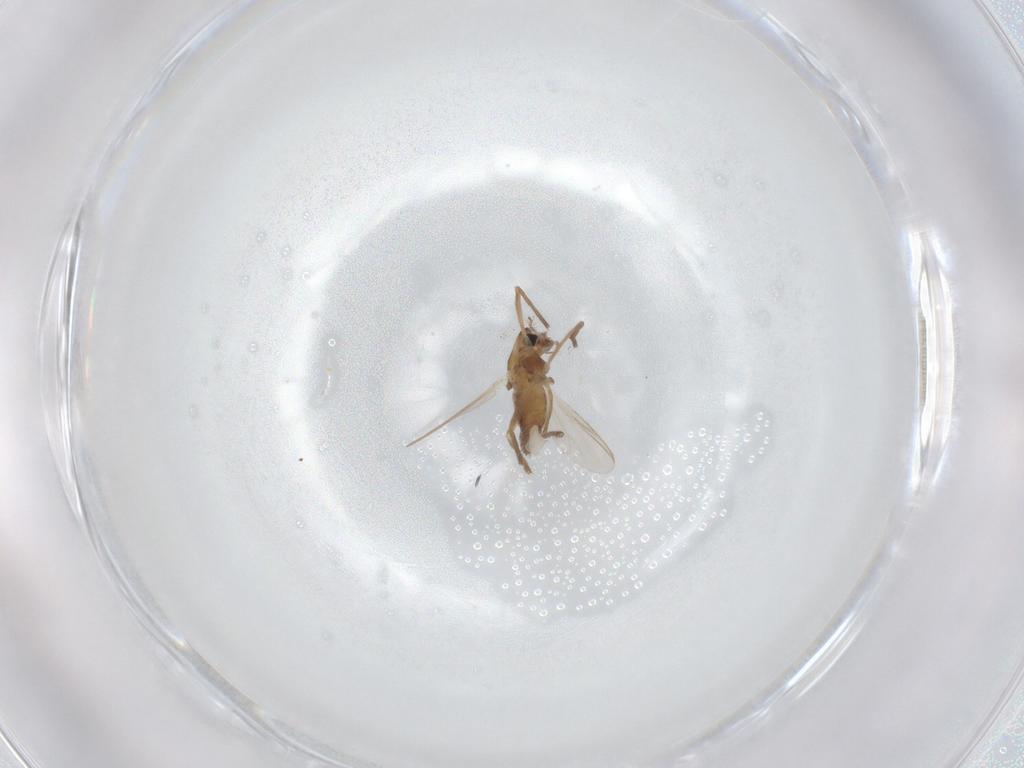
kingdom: Animalia
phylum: Arthropoda
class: Insecta
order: Diptera
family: Chironomidae
